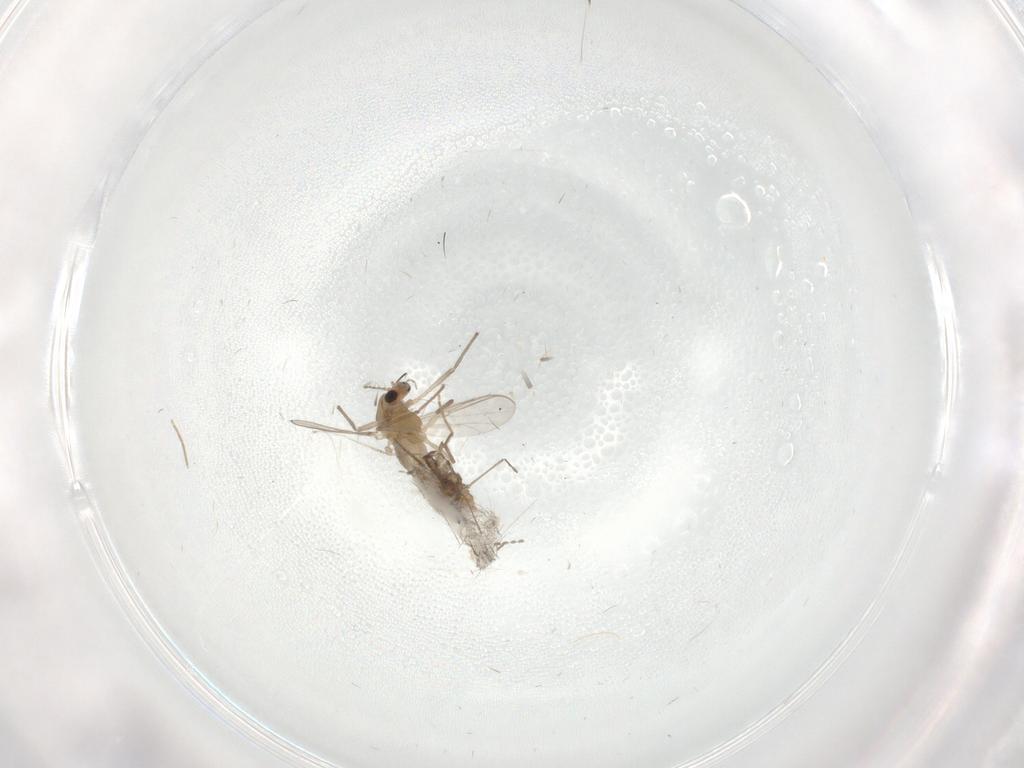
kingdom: Animalia
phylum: Arthropoda
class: Insecta
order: Diptera
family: Chironomidae
